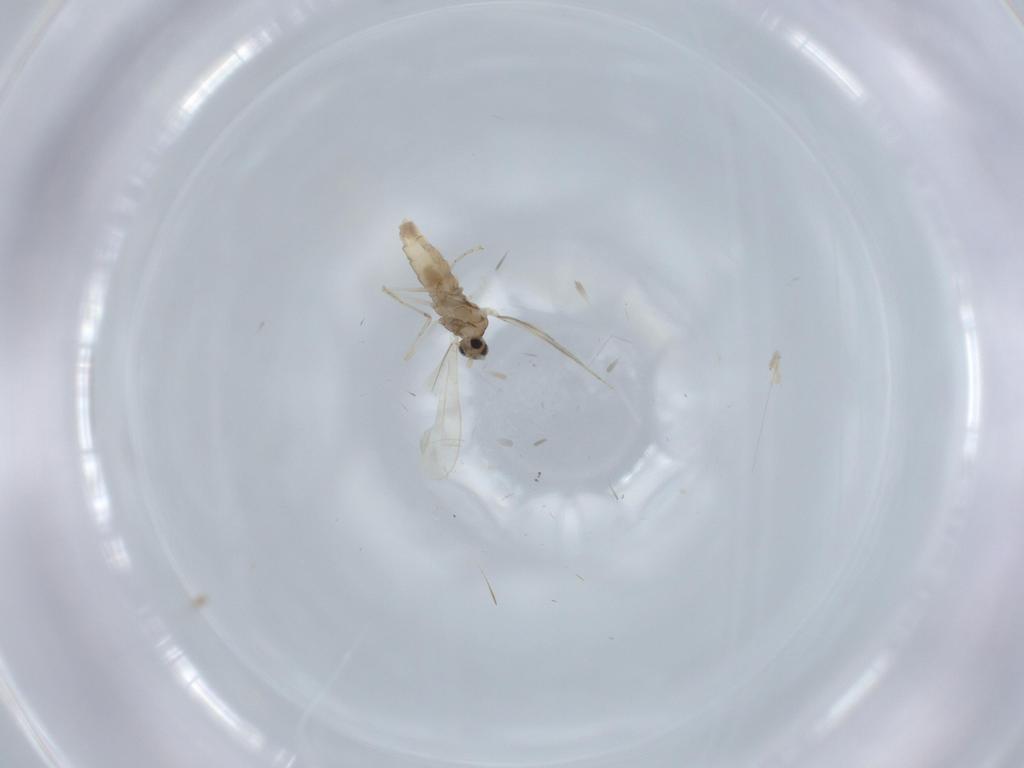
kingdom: Animalia
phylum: Arthropoda
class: Insecta
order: Diptera
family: Cecidomyiidae
